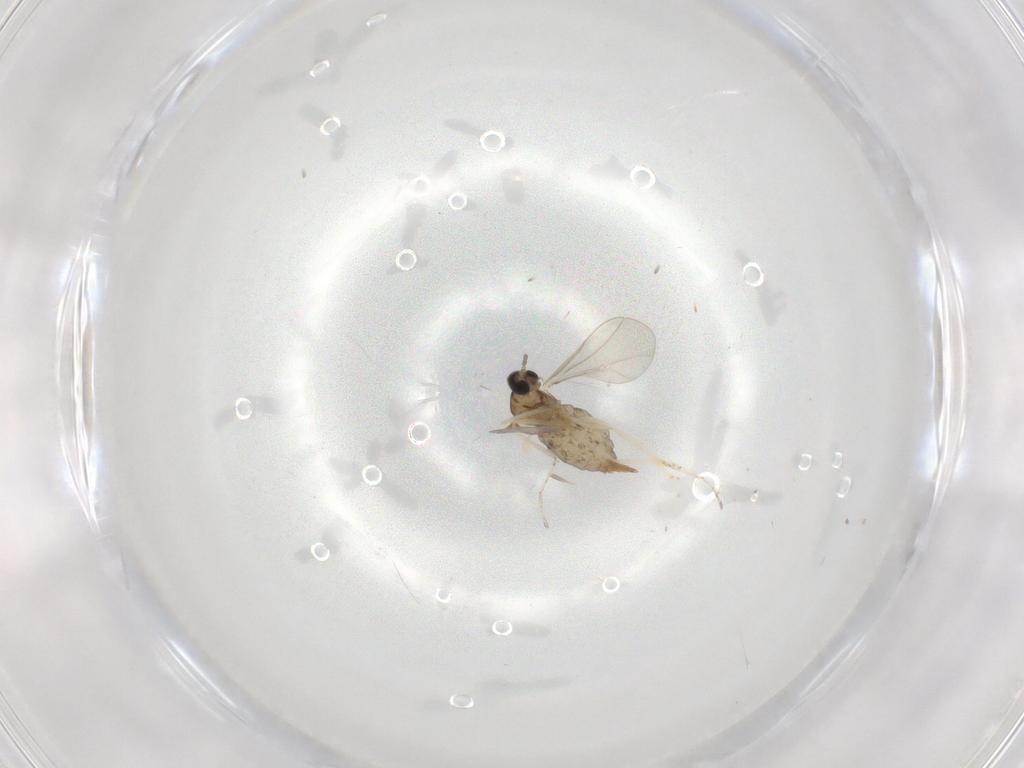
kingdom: Animalia
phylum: Arthropoda
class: Insecta
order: Diptera
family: Cecidomyiidae
